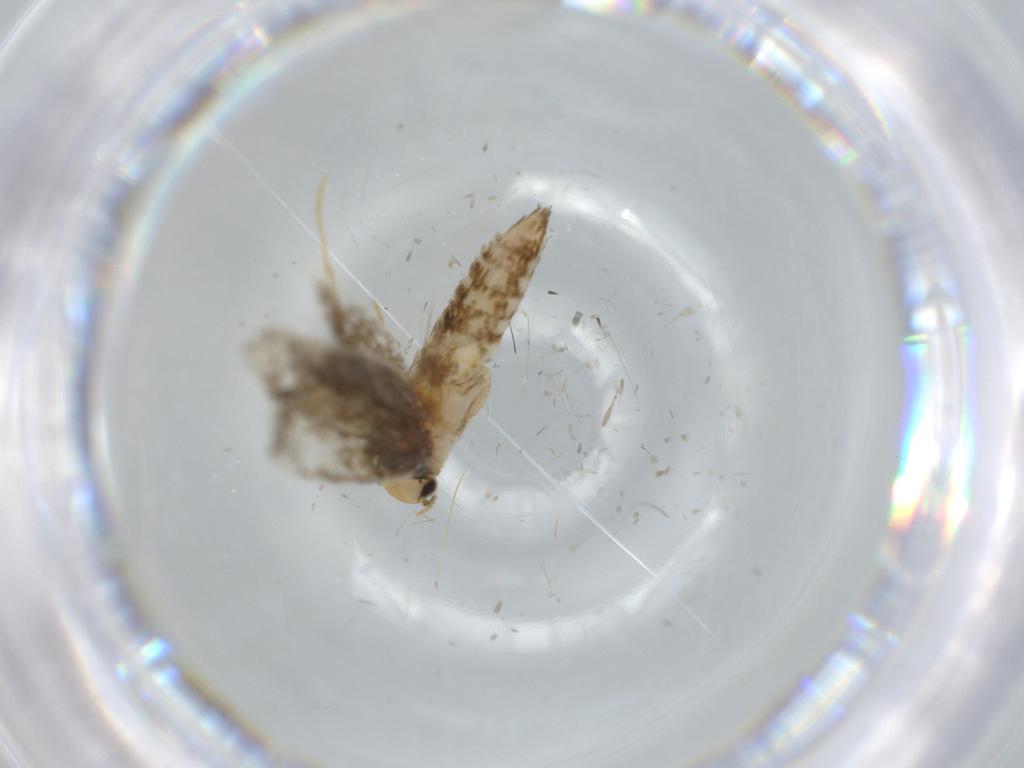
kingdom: Animalia
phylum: Arthropoda
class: Insecta
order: Lepidoptera
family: Tineidae
